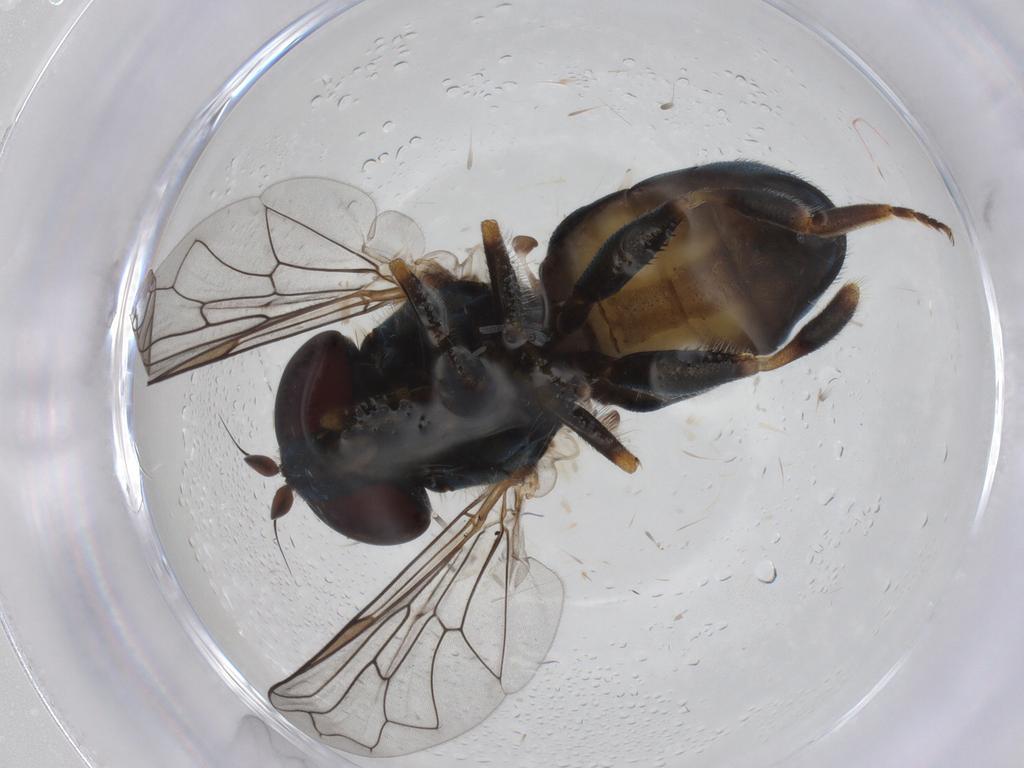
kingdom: Animalia
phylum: Arthropoda
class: Insecta
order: Diptera
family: Syrphidae
